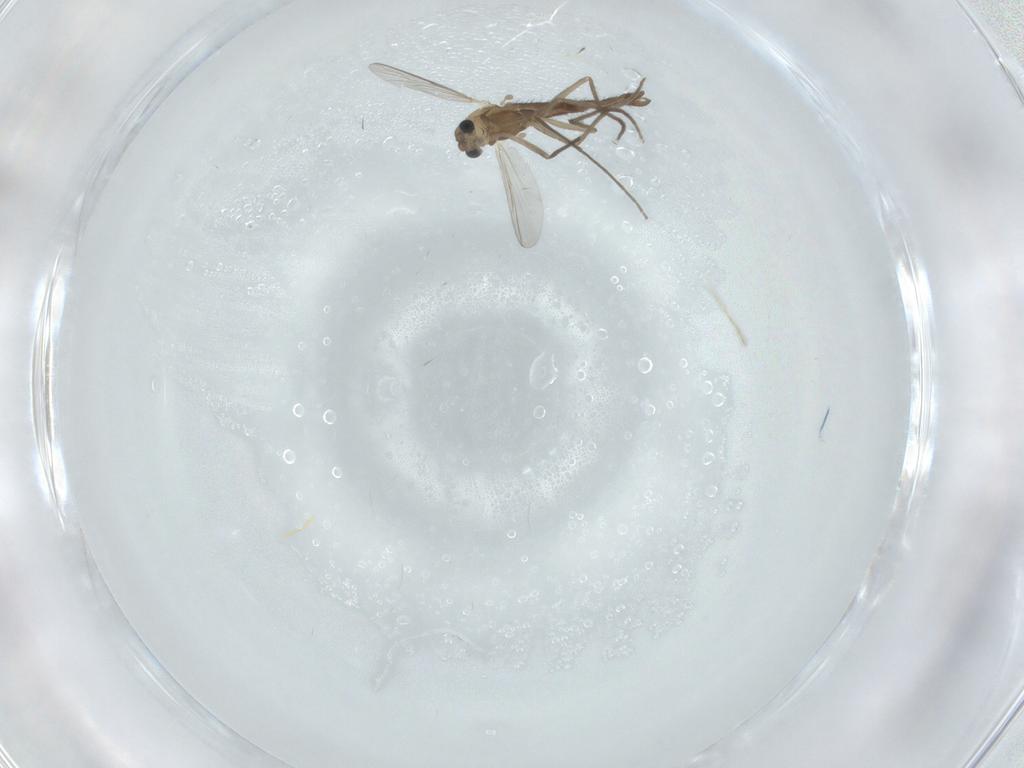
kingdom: Animalia
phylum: Arthropoda
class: Insecta
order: Diptera
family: Chironomidae
